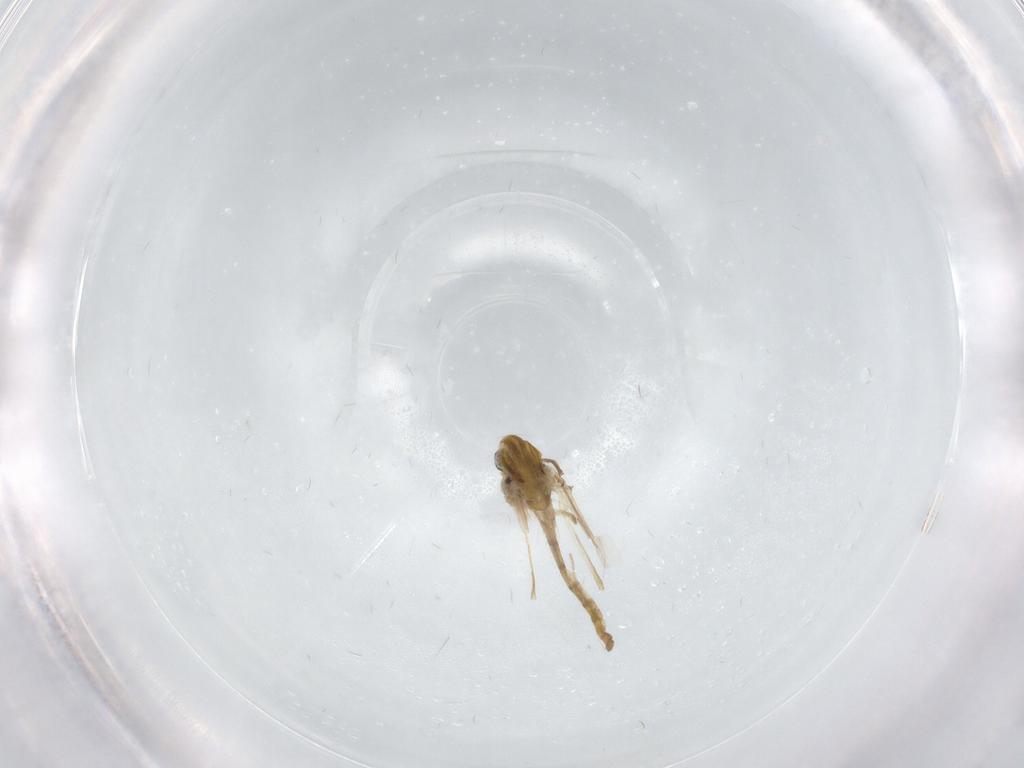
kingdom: Animalia
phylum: Arthropoda
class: Insecta
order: Diptera
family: Chironomidae
